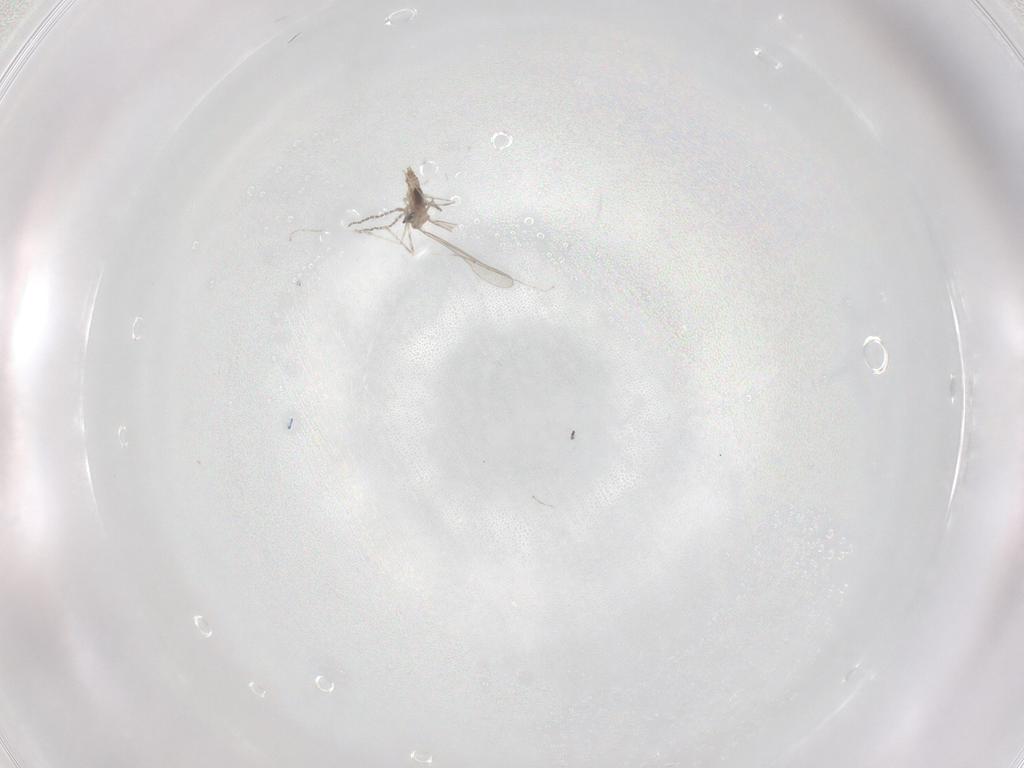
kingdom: Animalia
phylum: Arthropoda
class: Insecta
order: Diptera
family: Cecidomyiidae
